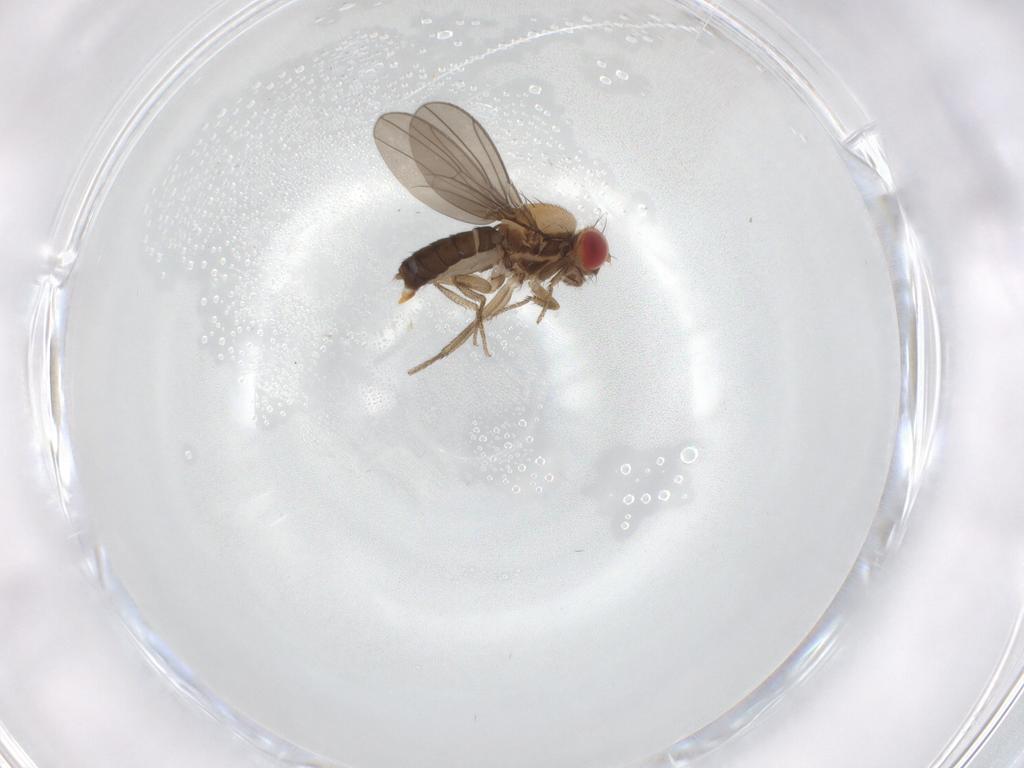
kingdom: Animalia
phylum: Arthropoda
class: Insecta
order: Diptera
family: Drosophilidae
